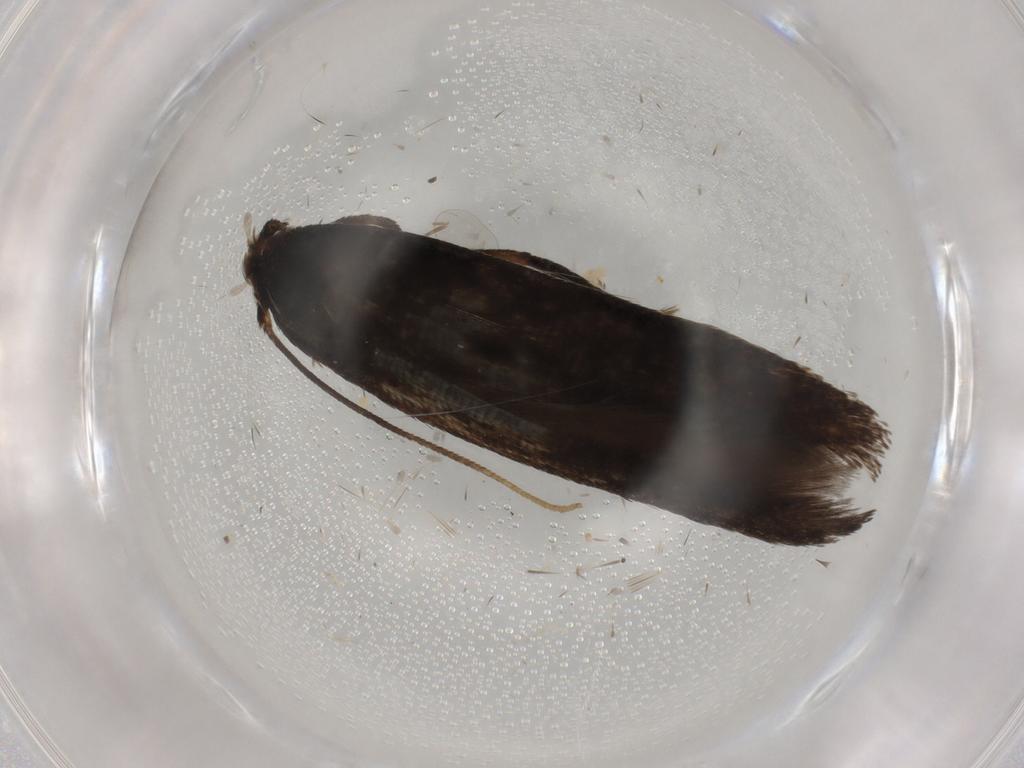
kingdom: Animalia
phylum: Arthropoda
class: Insecta
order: Lepidoptera
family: Cosmopterigidae
